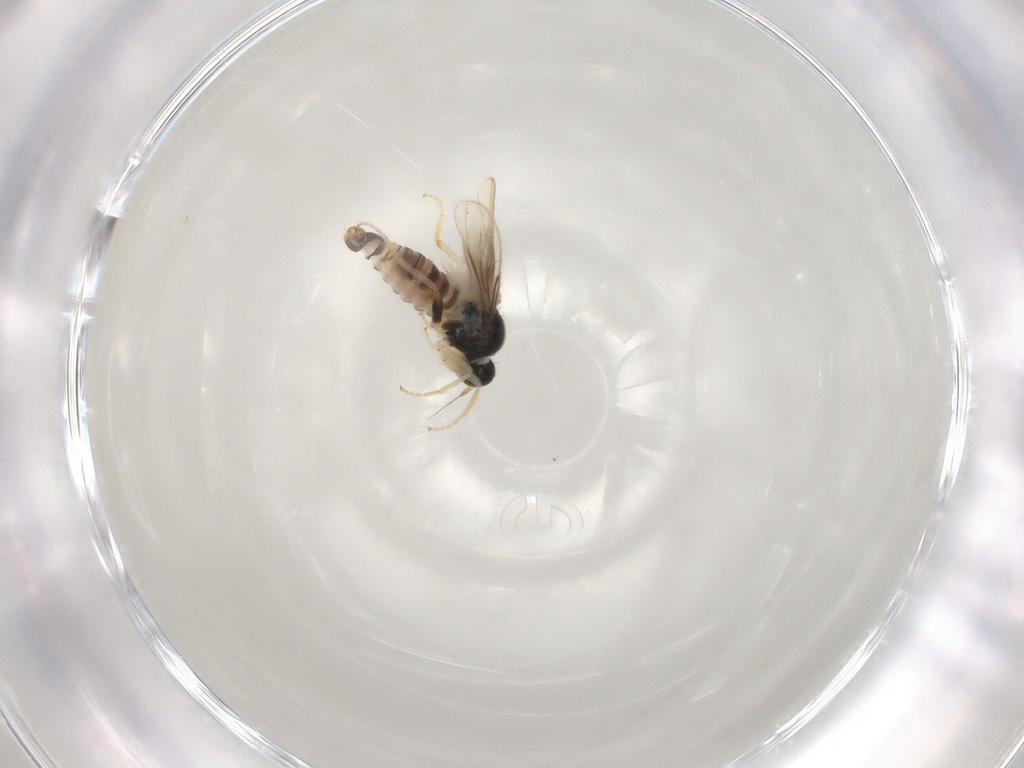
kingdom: Animalia
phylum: Arthropoda
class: Insecta
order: Diptera
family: Hybotidae
